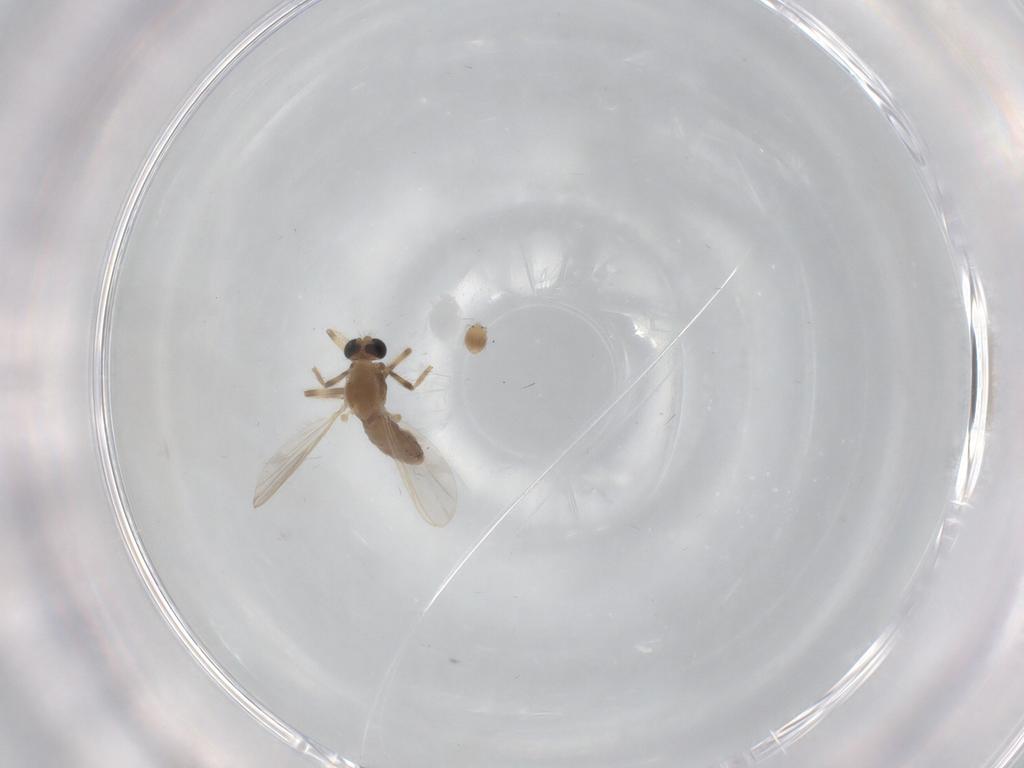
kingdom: Animalia
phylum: Arthropoda
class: Insecta
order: Diptera
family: Chironomidae
